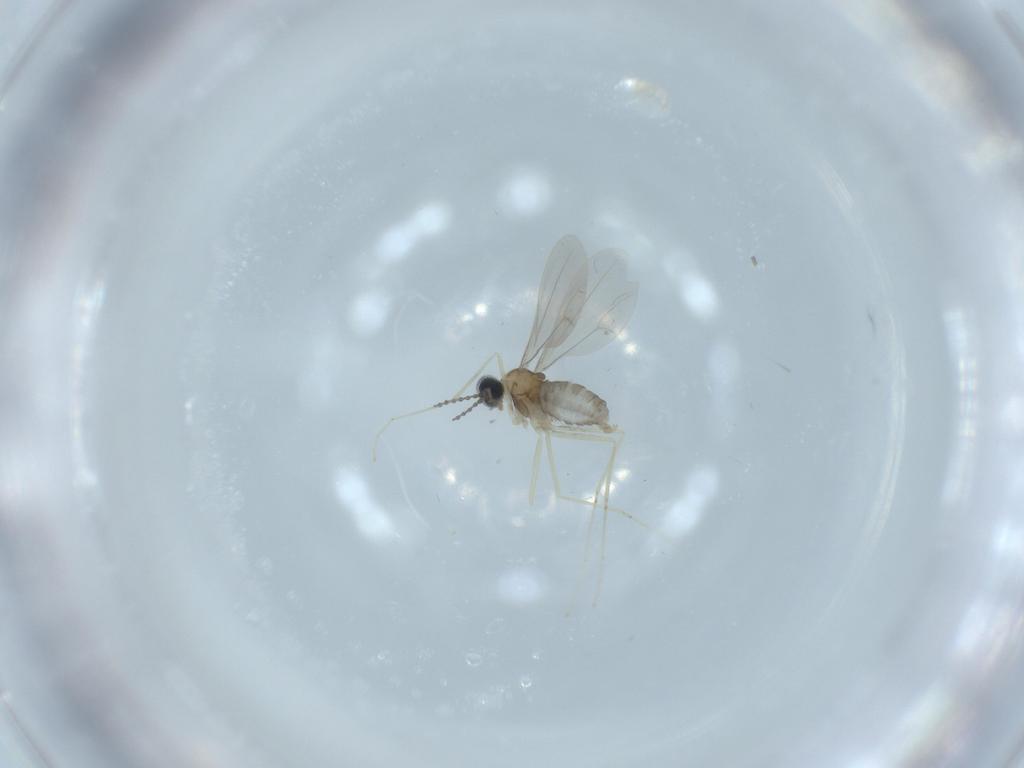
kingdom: Animalia
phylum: Arthropoda
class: Insecta
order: Diptera
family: Cecidomyiidae
